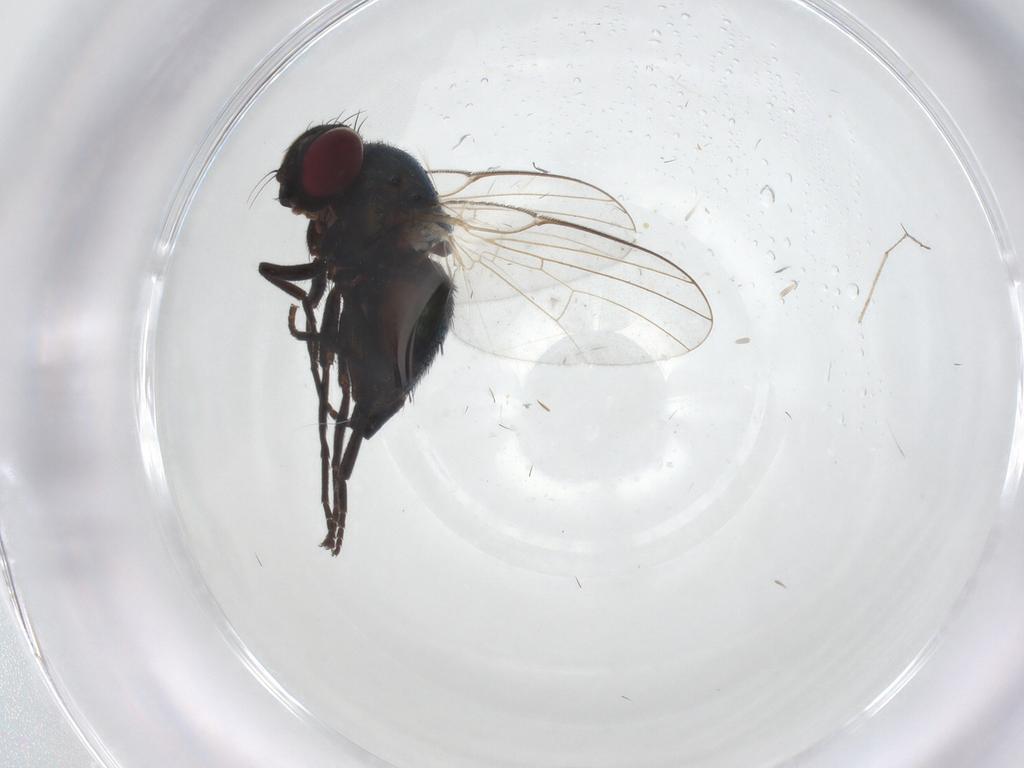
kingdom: Animalia
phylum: Arthropoda
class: Insecta
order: Diptera
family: Agromyzidae
